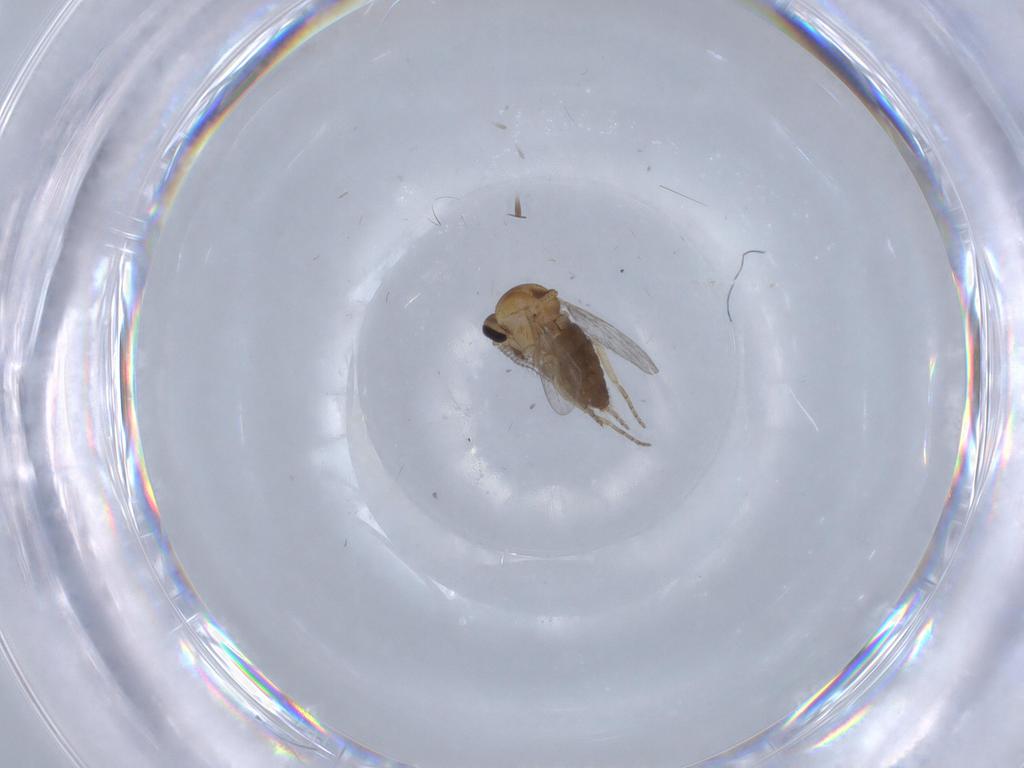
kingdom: Animalia
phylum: Arthropoda
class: Insecta
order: Diptera
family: Ceratopogonidae
